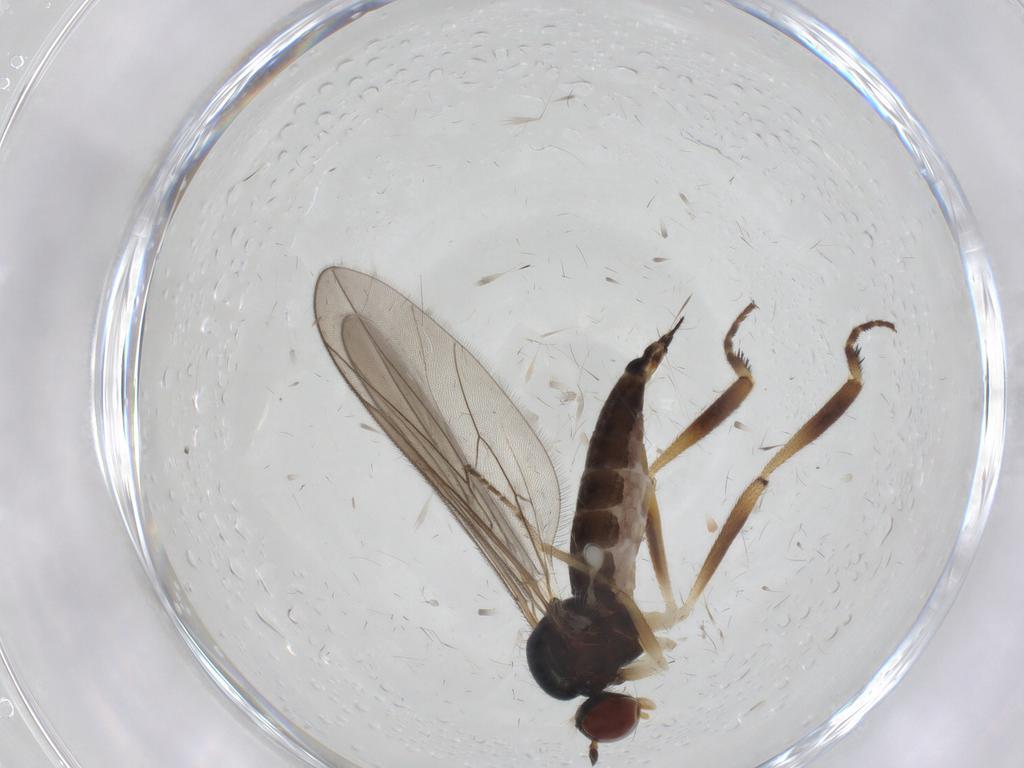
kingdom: Animalia
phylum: Arthropoda
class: Insecta
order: Diptera
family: Hybotidae
